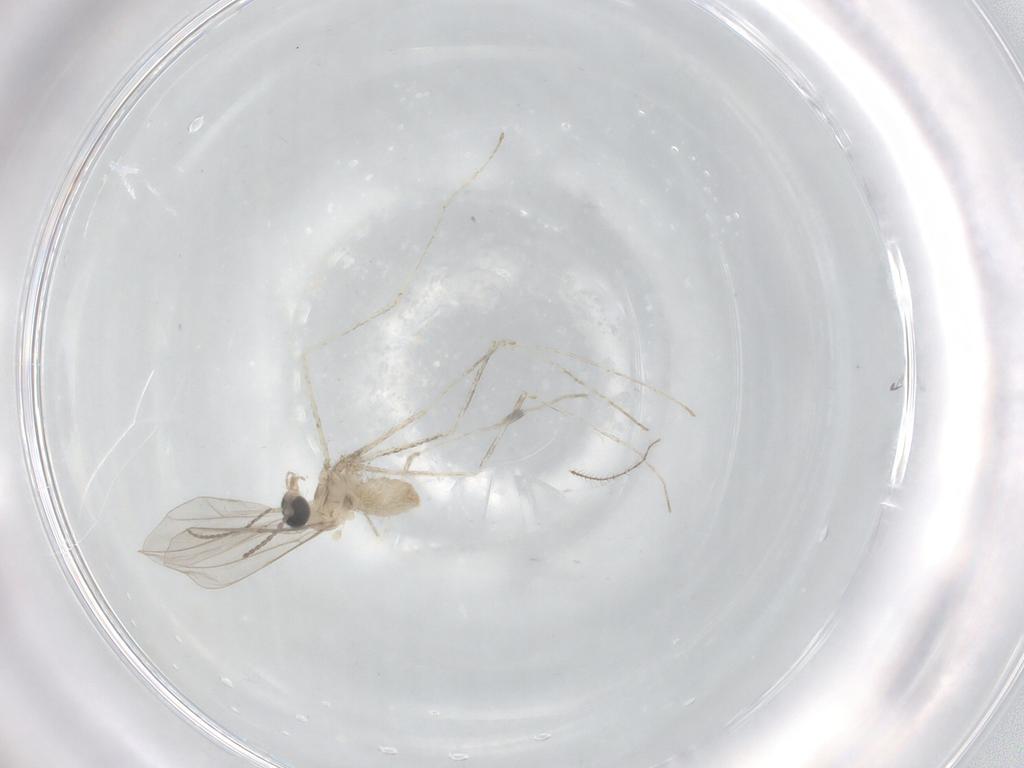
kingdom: Animalia
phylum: Arthropoda
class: Insecta
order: Diptera
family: Cecidomyiidae
